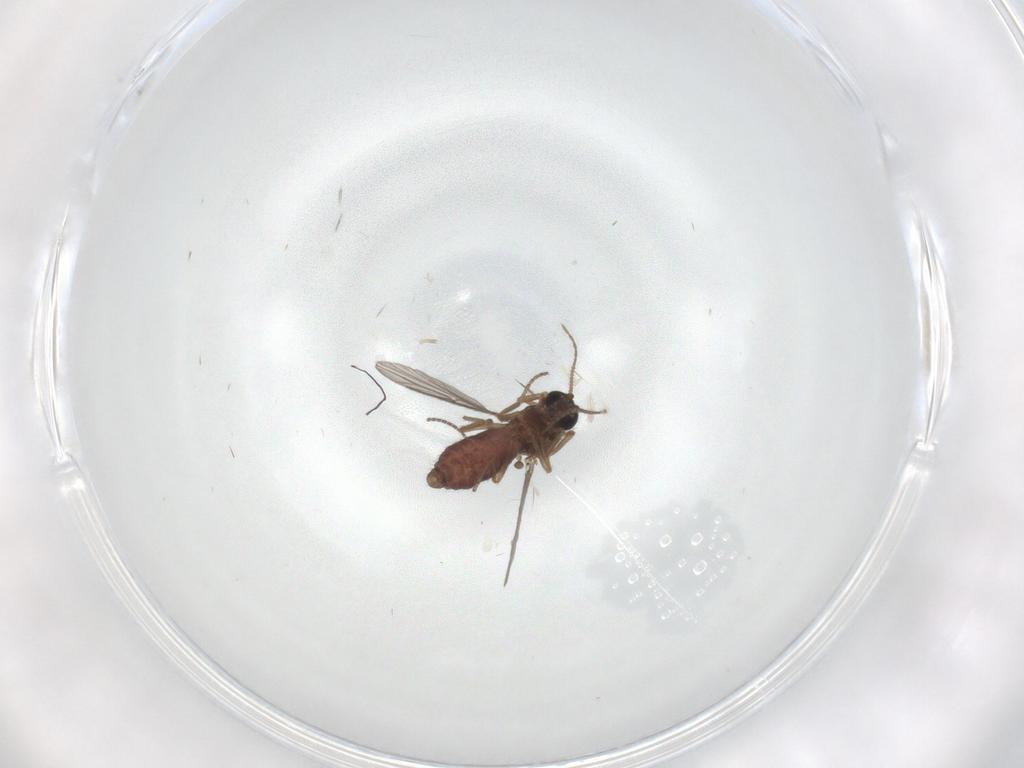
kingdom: Animalia
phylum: Arthropoda
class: Insecta
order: Diptera
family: Ceratopogonidae
